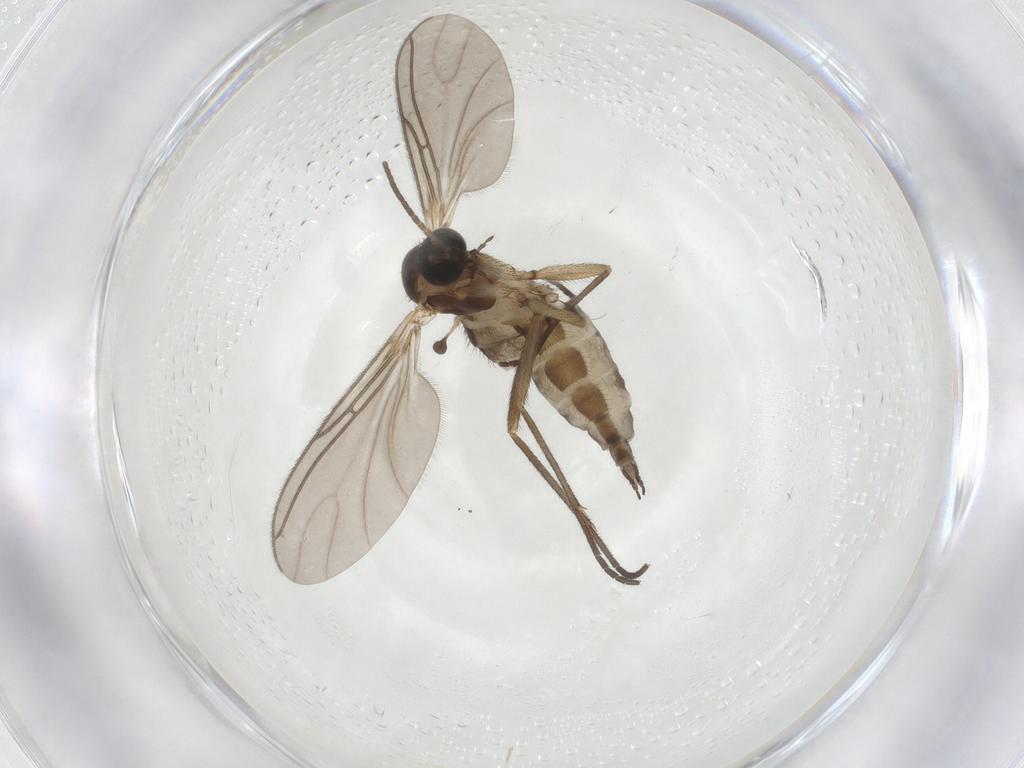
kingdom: Animalia
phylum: Arthropoda
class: Insecta
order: Diptera
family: Sciaridae
